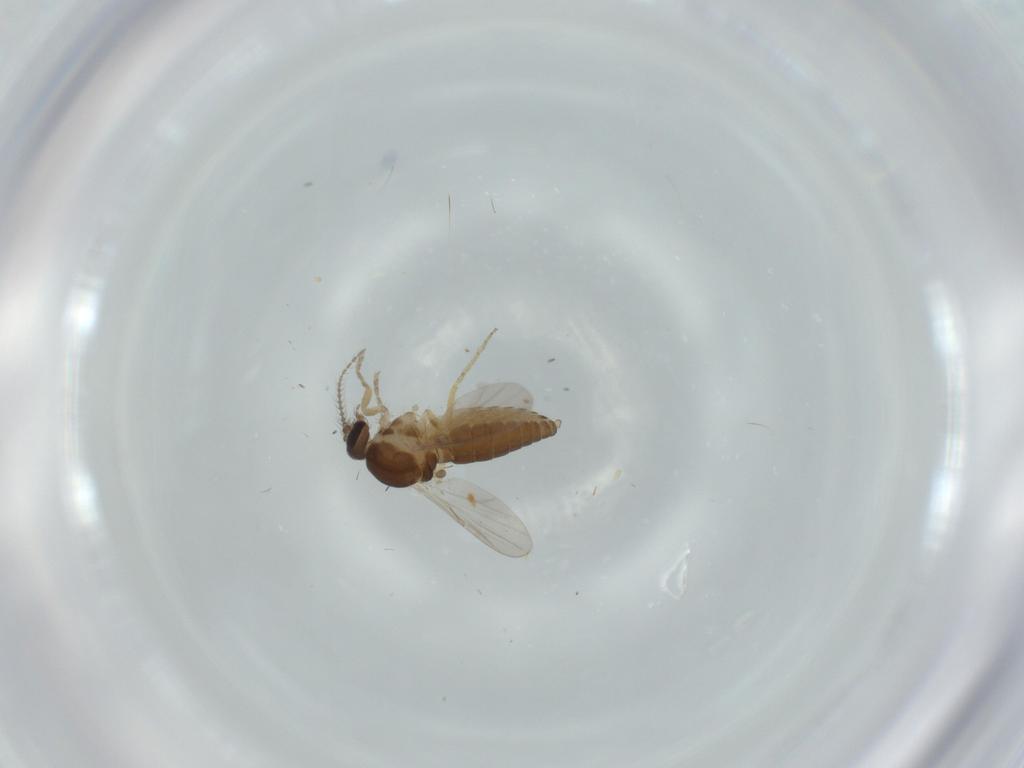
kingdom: Animalia
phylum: Arthropoda
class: Insecta
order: Diptera
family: Ceratopogonidae
